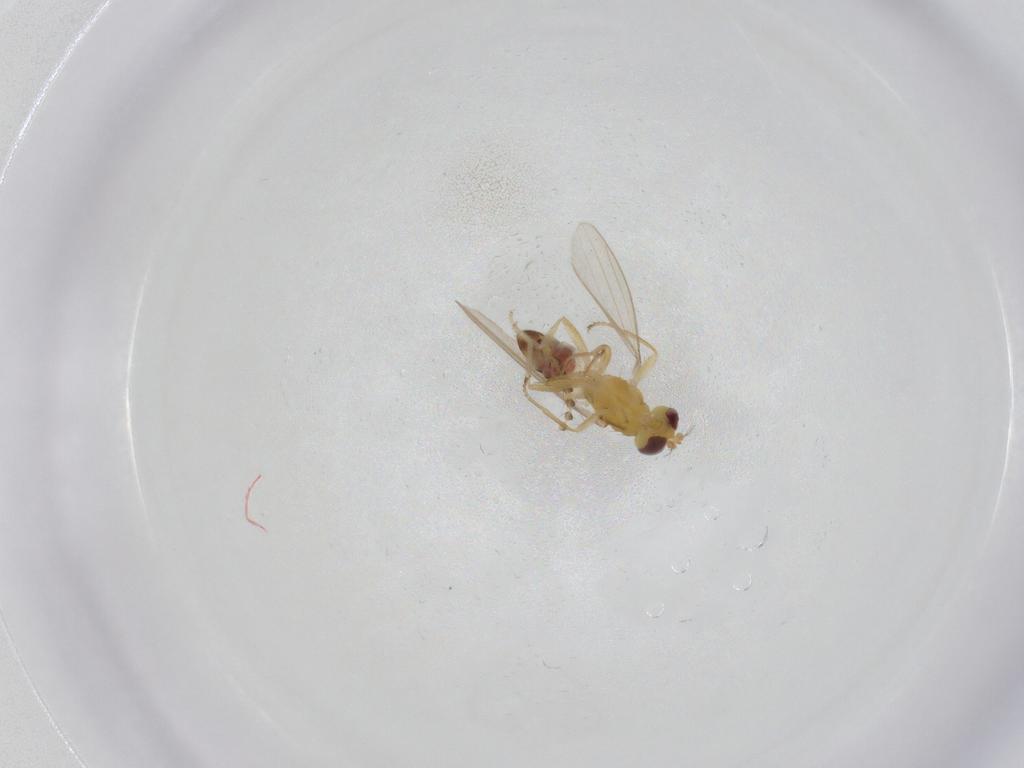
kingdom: Animalia
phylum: Arthropoda
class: Insecta
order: Diptera
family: Periscelididae
